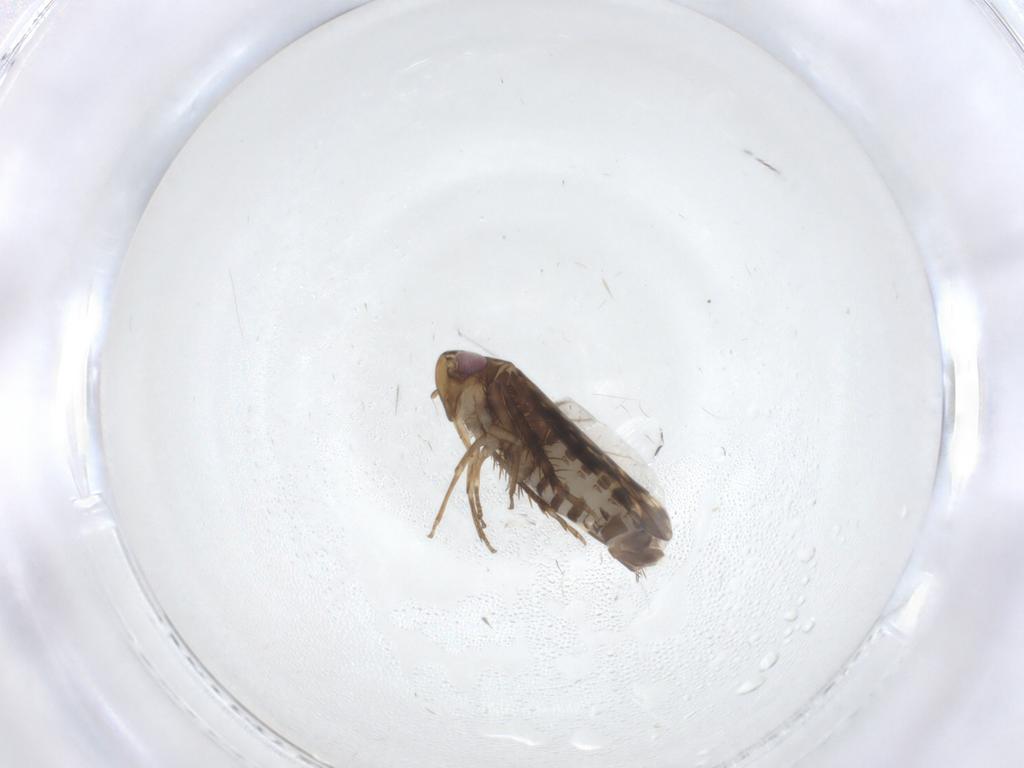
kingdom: Animalia
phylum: Arthropoda
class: Insecta
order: Hemiptera
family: Cicadellidae
